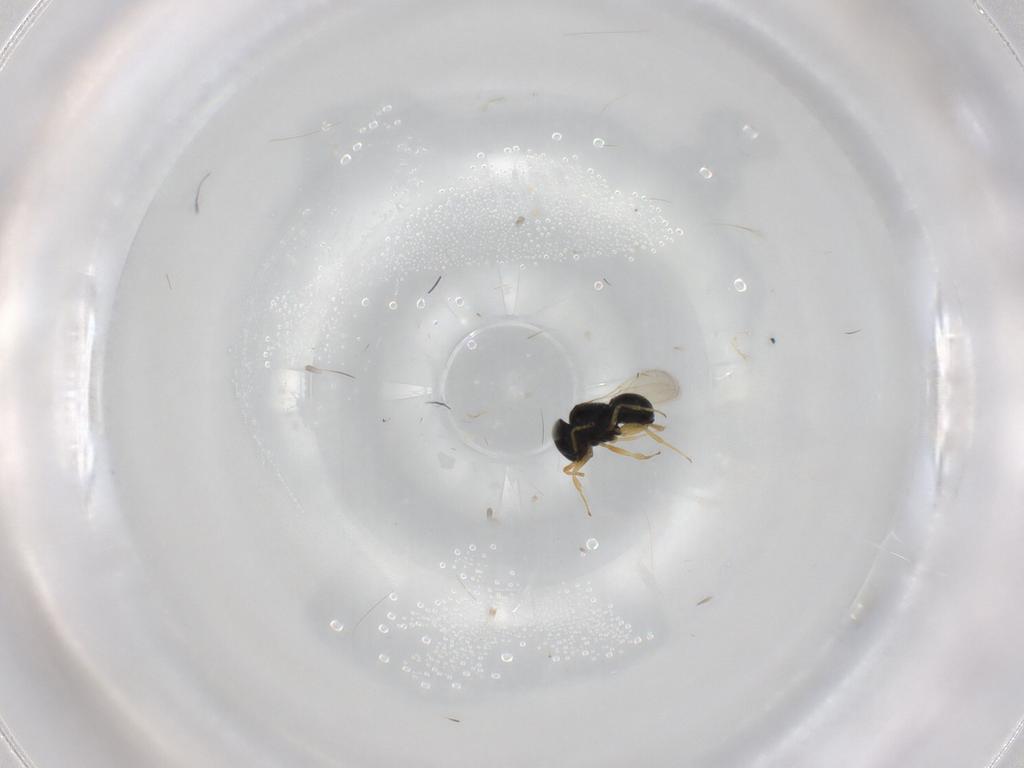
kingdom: Animalia
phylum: Arthropoda
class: Insecta
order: Hymenoptera
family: Scelionidae
